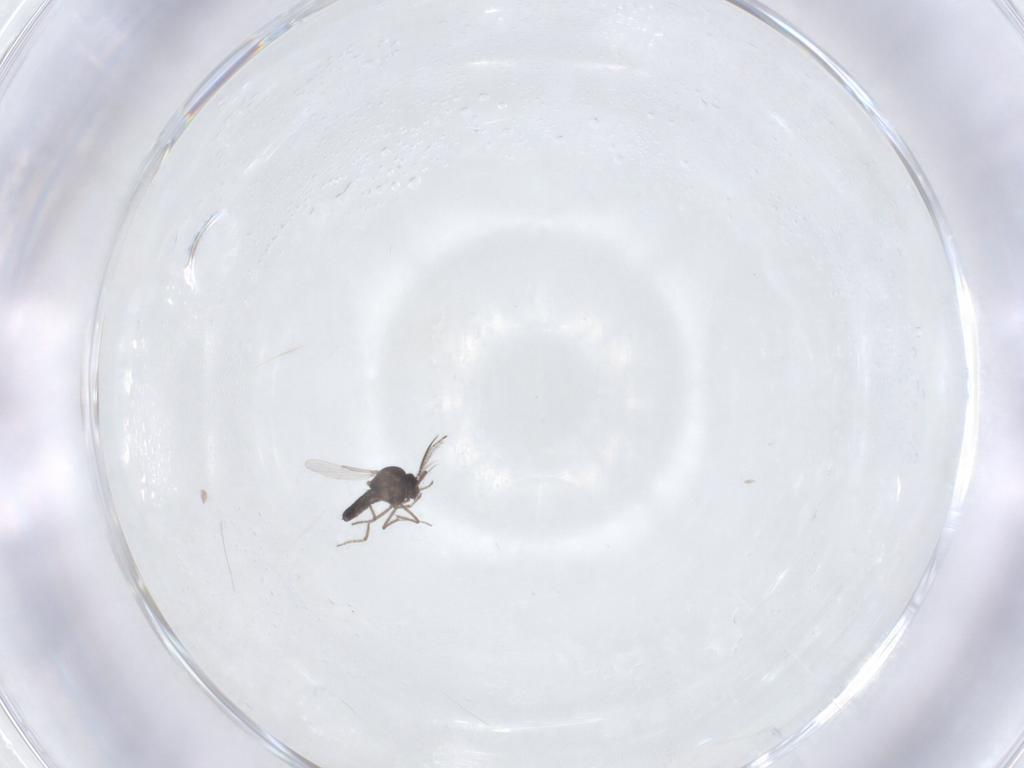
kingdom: Animalia
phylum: Arthropoda
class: Insecta
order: Diptera
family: Ceratopogonidae
